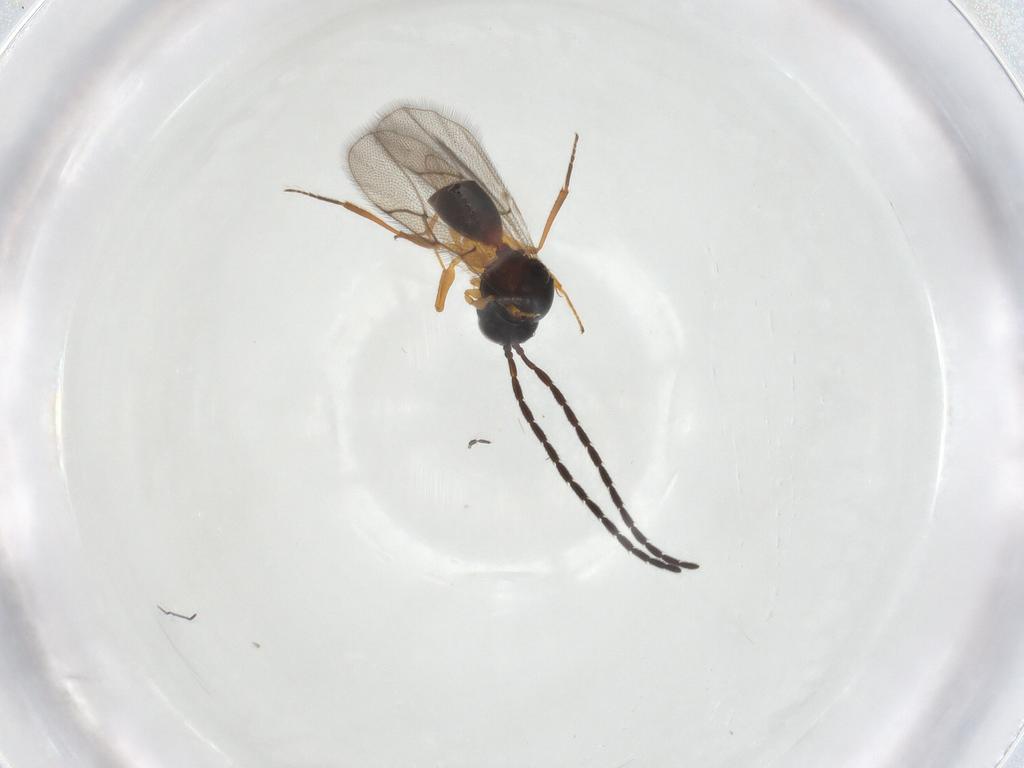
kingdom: Animalia
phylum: Arthropoda
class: Insecta
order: Hymenoptera
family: Figitidae
